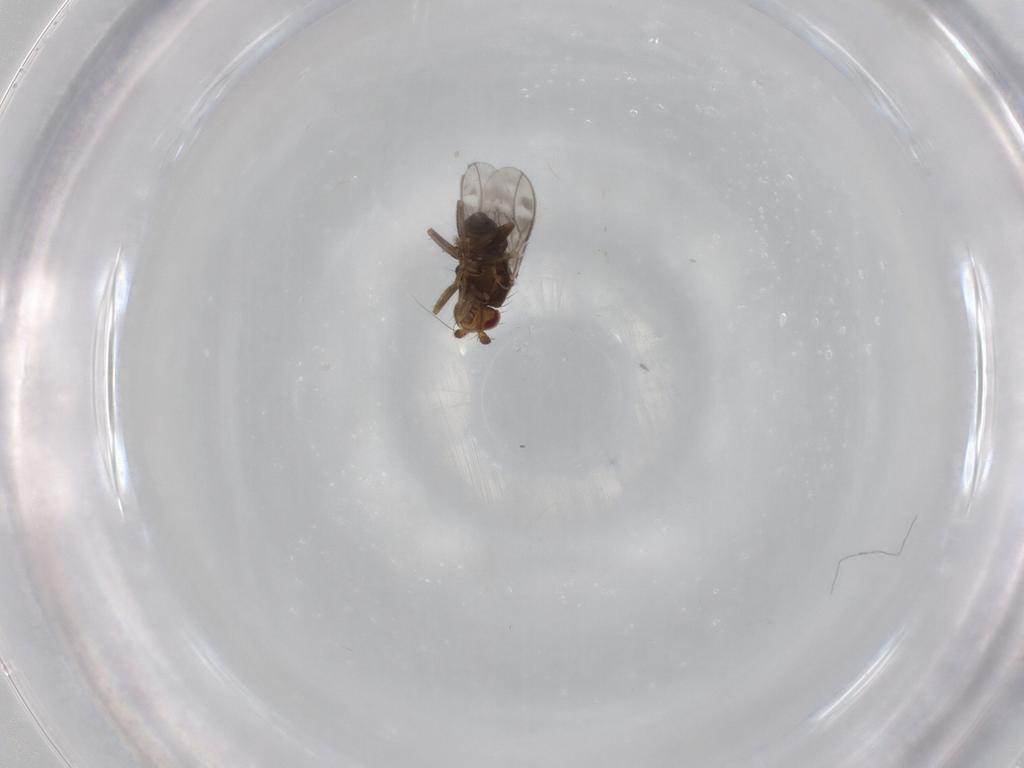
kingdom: Animalia
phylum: Arthropoda
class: Insecta
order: Diptera
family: Sphaeroceridae
